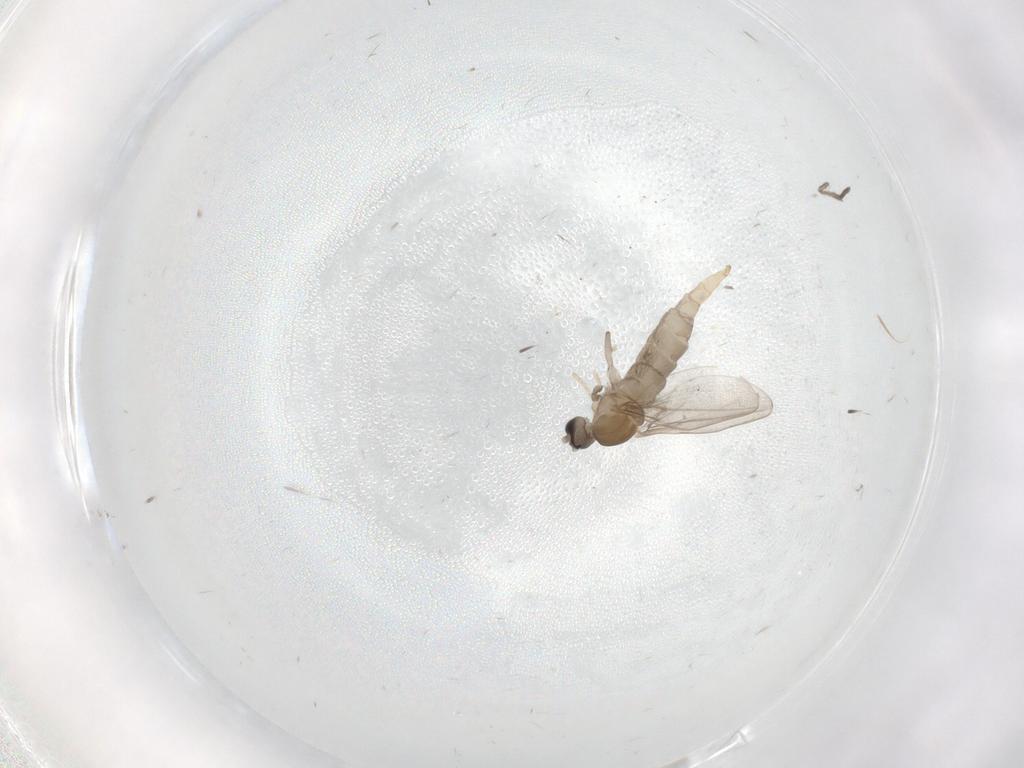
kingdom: Animalia
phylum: Arthropoda
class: Insecta
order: Diptera
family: Cecidomyiidae
